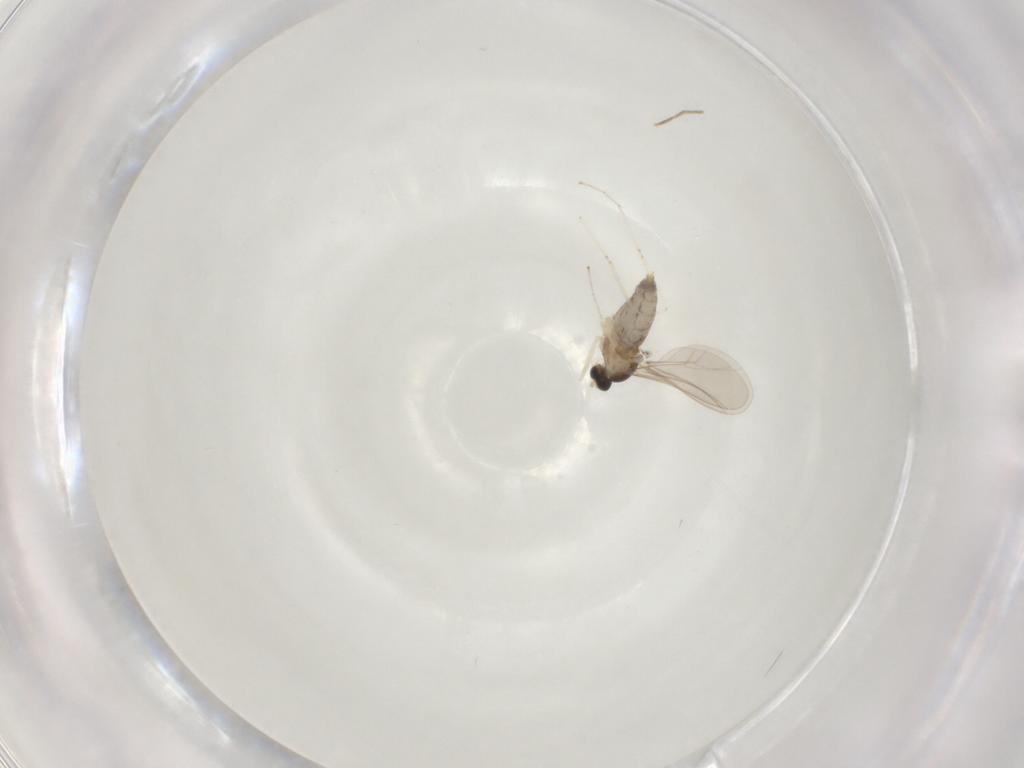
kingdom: Animalia
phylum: Arthropoda
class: Insecta
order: Diptera
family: Cecidomyiidae
